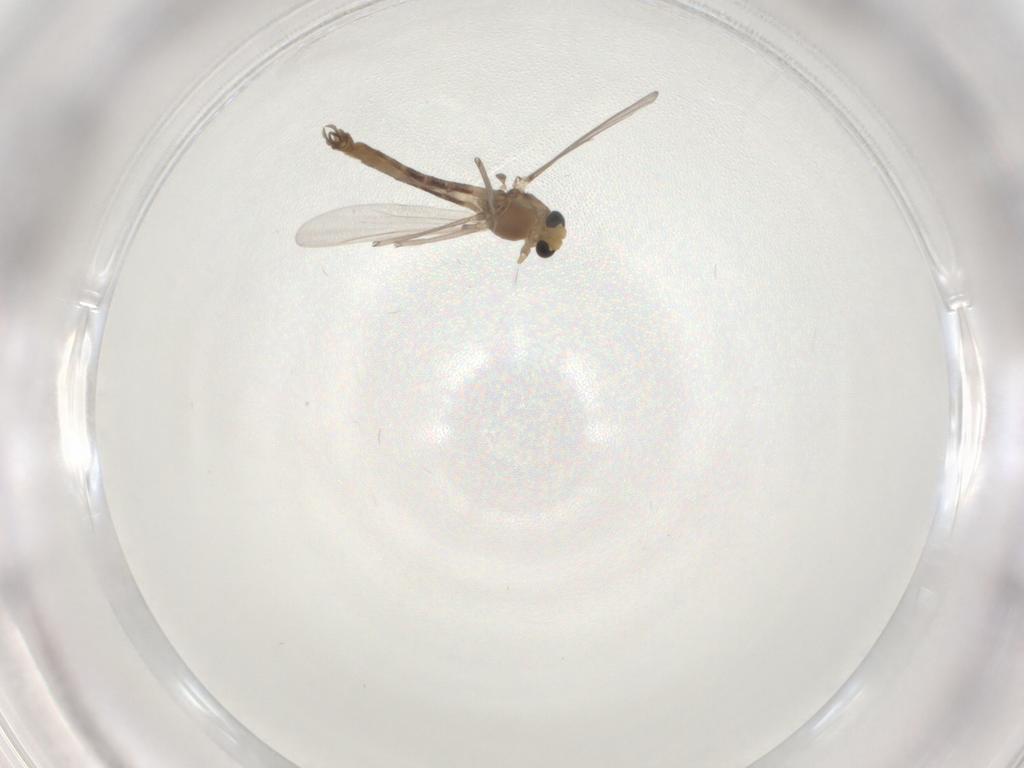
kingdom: Animalia
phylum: Arthropoda
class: Insecta
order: Diptera
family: Chironomidae
